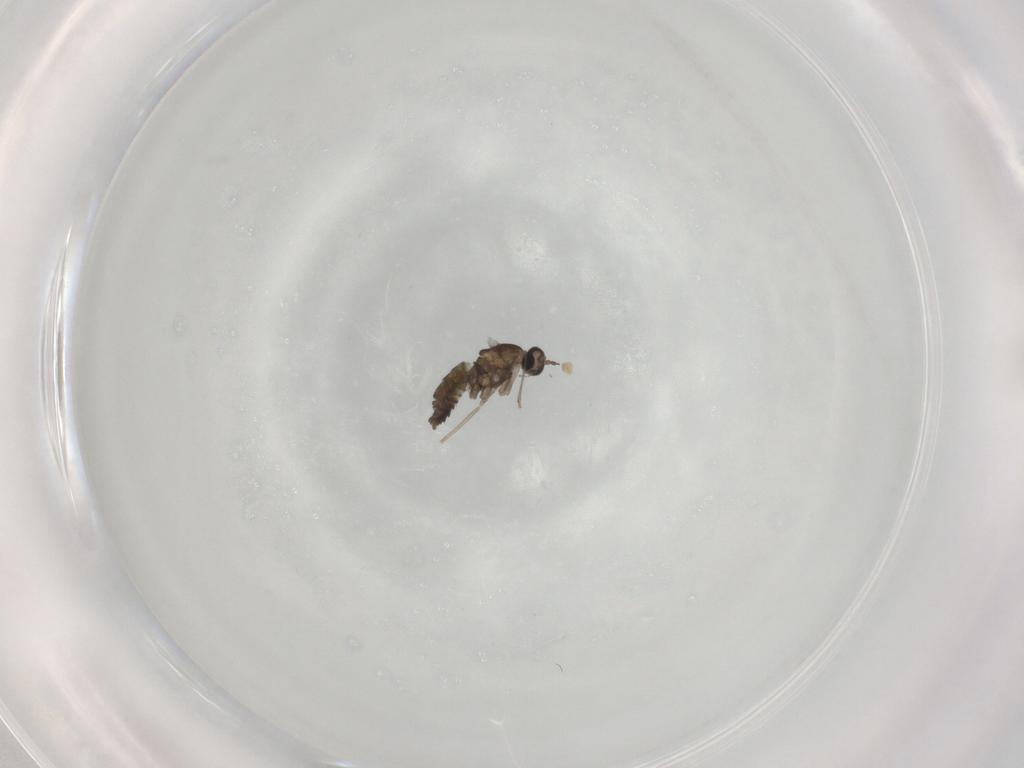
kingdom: Animalia
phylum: Arthropoda
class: Insecta
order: Diptera
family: Cecidomyiidae
